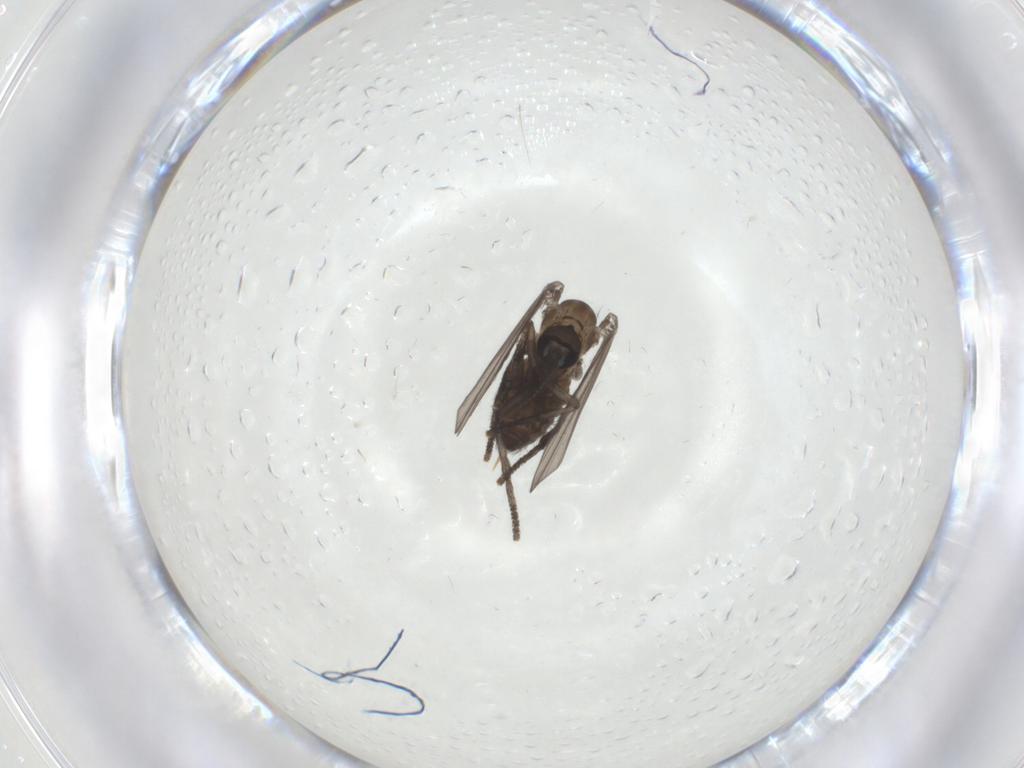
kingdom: Animalia
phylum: Arthropoda
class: Insecta
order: Diptera
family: Psychodidae
